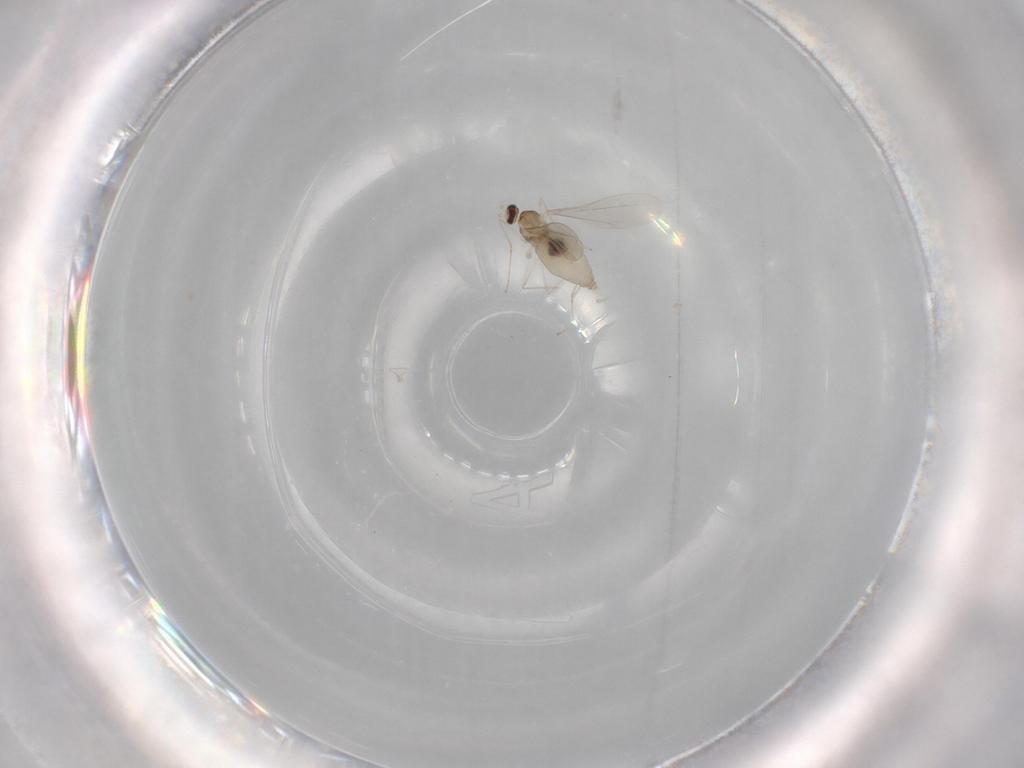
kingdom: Animalia
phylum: Arthropoda
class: Insecta
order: Diptera
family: Cecidomyiidae
